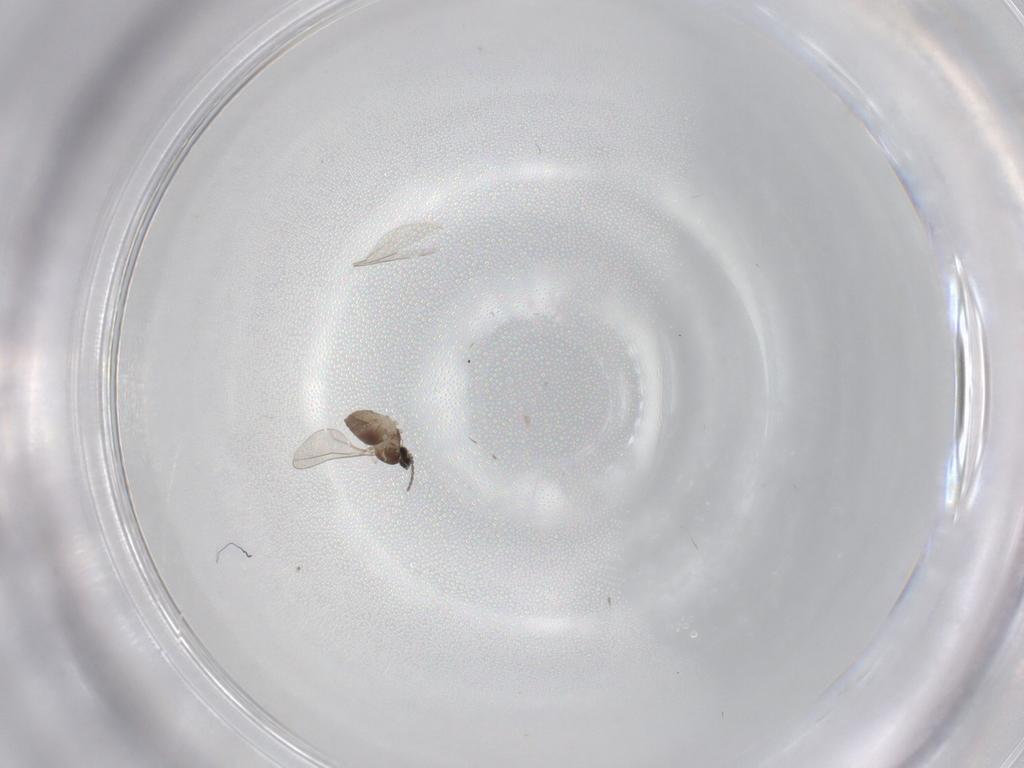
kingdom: Animalia
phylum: Arthropoda
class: Insecta
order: Diptera
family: Cecidomyiidae
